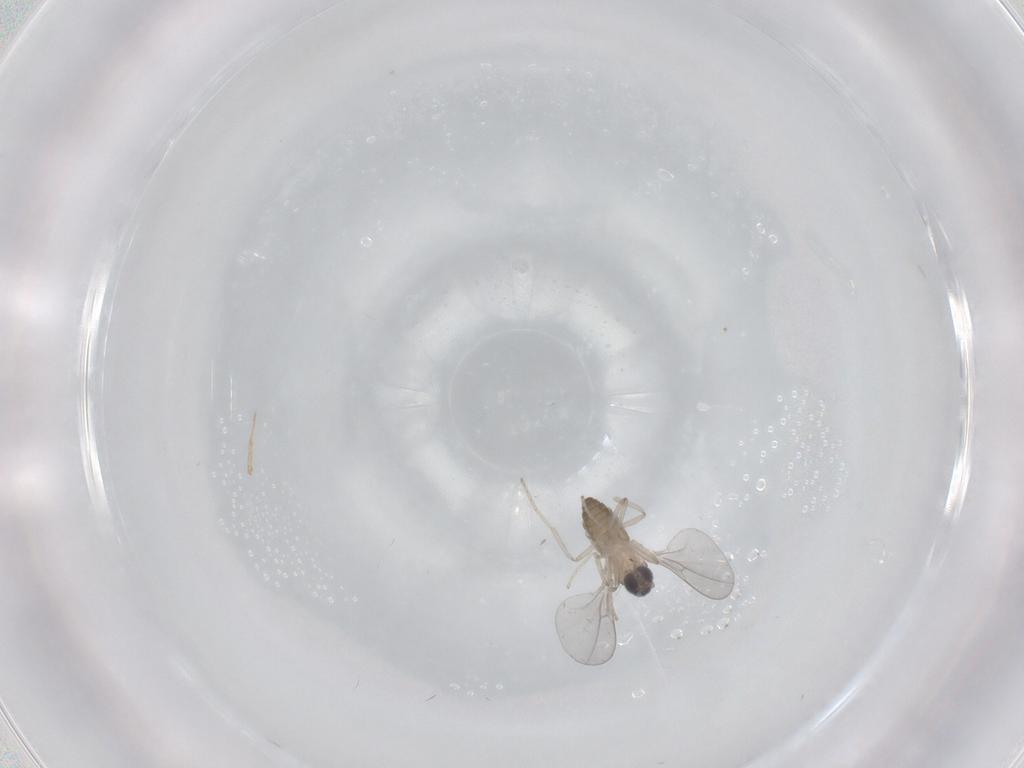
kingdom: Animalia
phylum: Arthropoda
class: Insecta
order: Diptera
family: Cecidomyiidae
